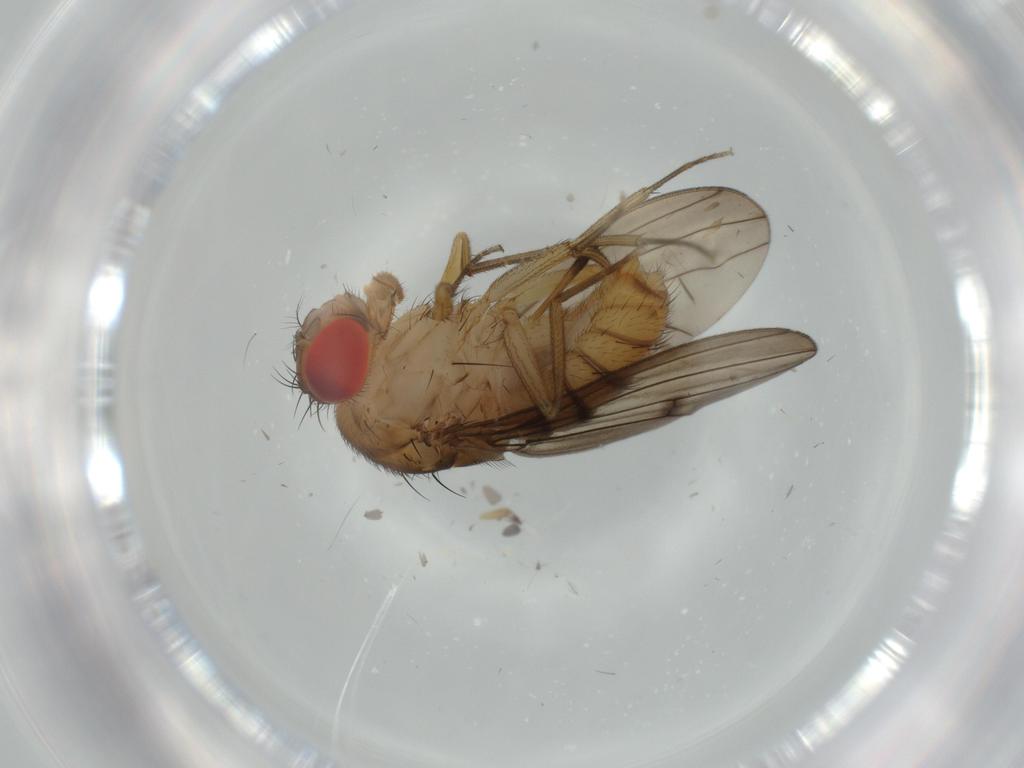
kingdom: Animalia
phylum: Arthropoda
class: Insecta
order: Diptera
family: Drosophilidae
